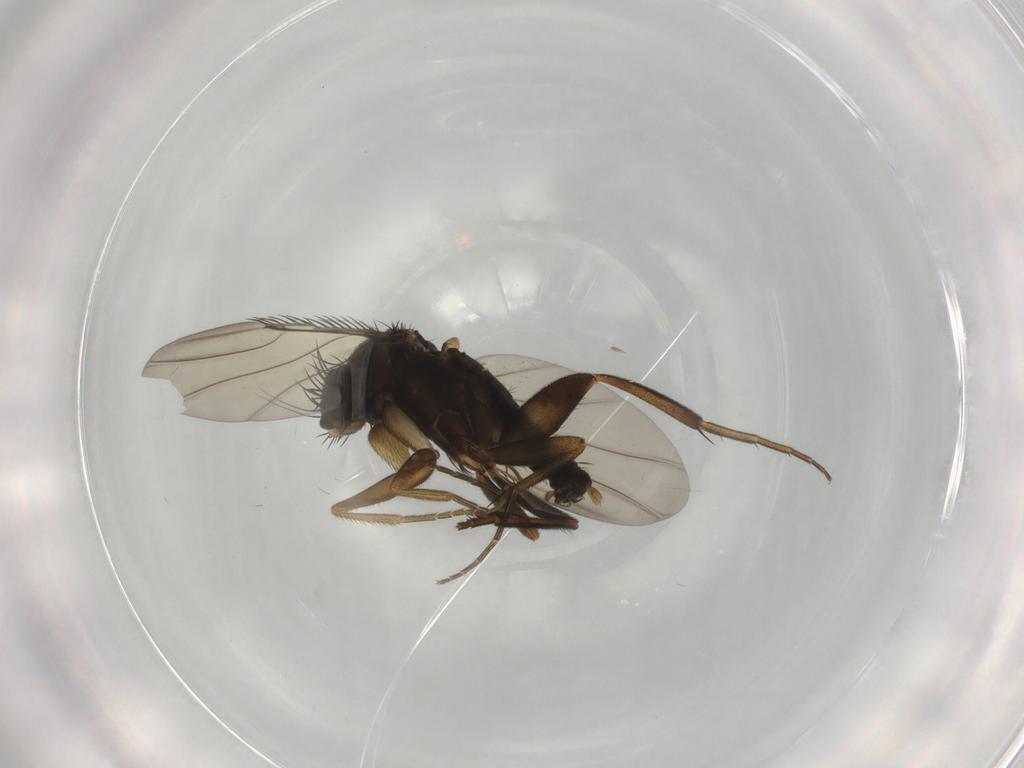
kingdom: Animalia
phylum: Arthropoda
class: Insecta
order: Diptera
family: Phoridae
